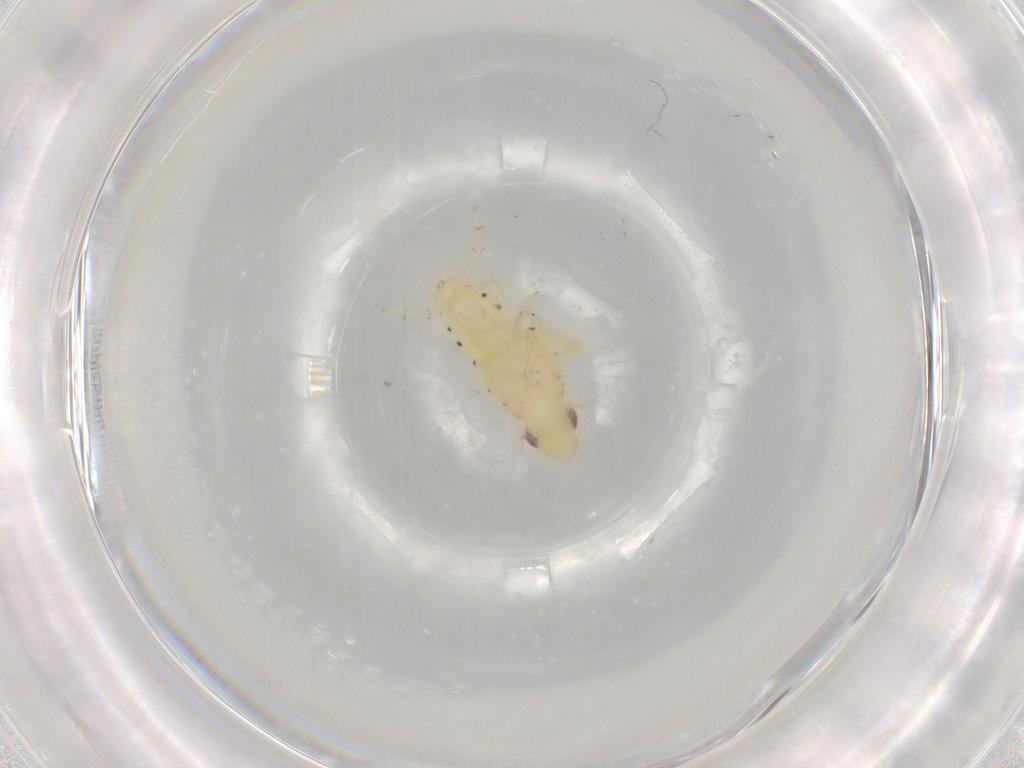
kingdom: Animalia
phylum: Arthropoda
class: Insecta
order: Hemiptera
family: Tropiduchidae
